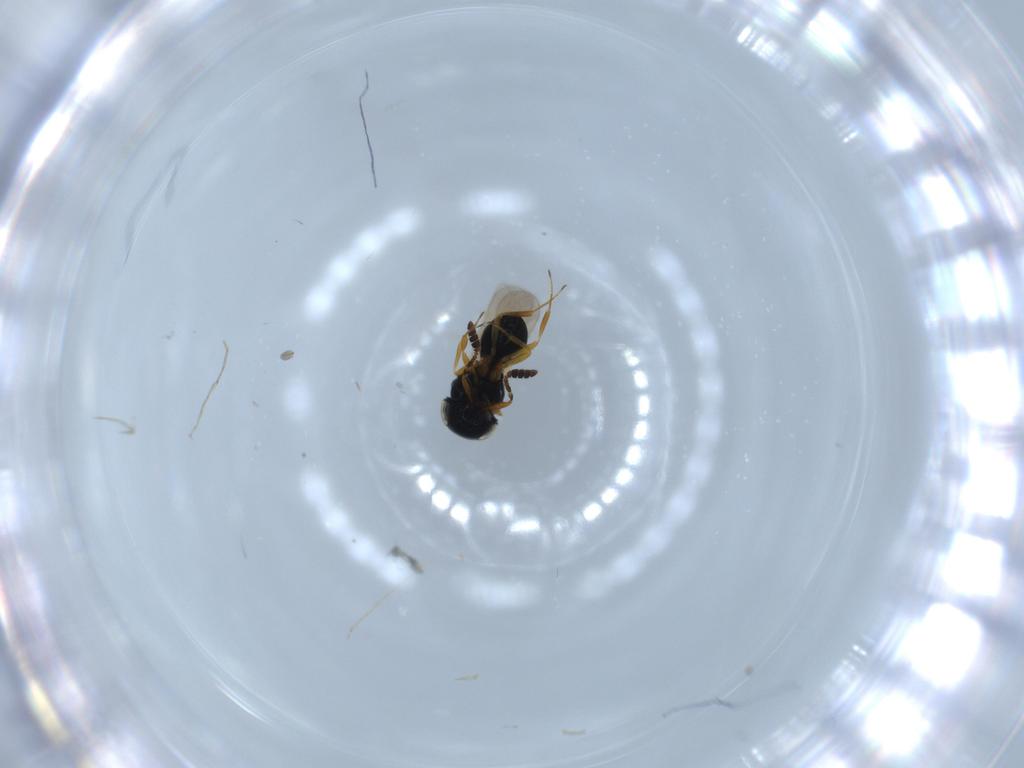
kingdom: Animalia
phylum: Arthropoda
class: Insecta
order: Hymenoptera
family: Scelionidae
